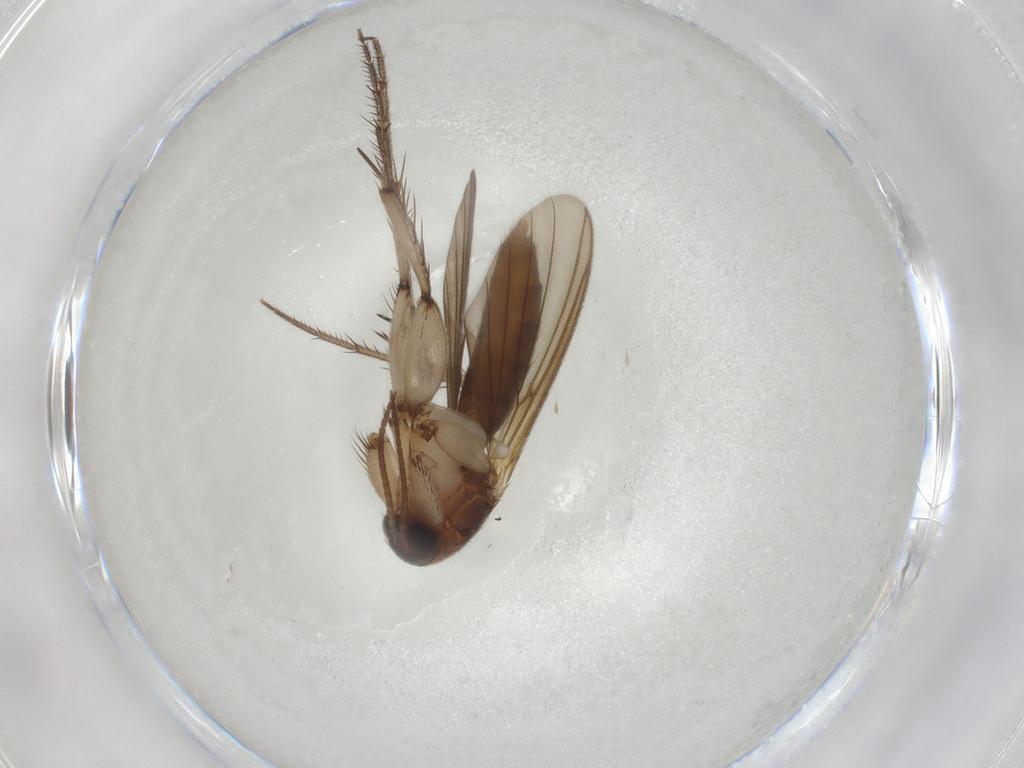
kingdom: Animalia
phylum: Arthropoda
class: Insecta
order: Diptera
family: Mycetophilidae
